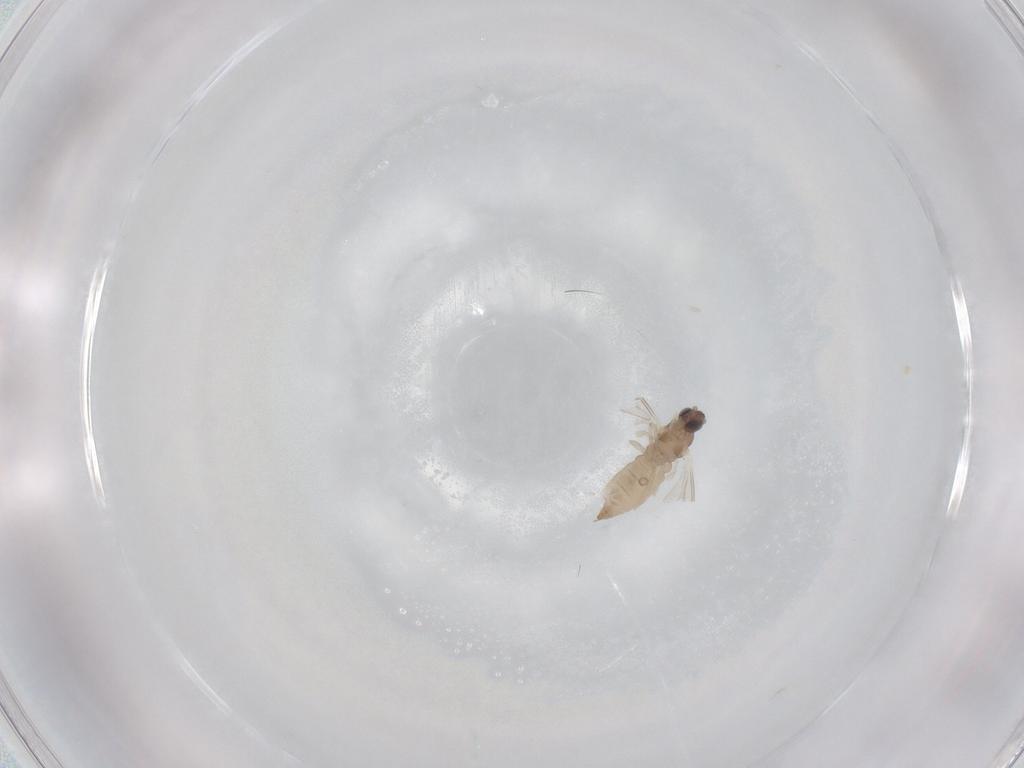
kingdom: Animalia
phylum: Arthropoda
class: Insecta
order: Diptera
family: Cecidomyiidae
